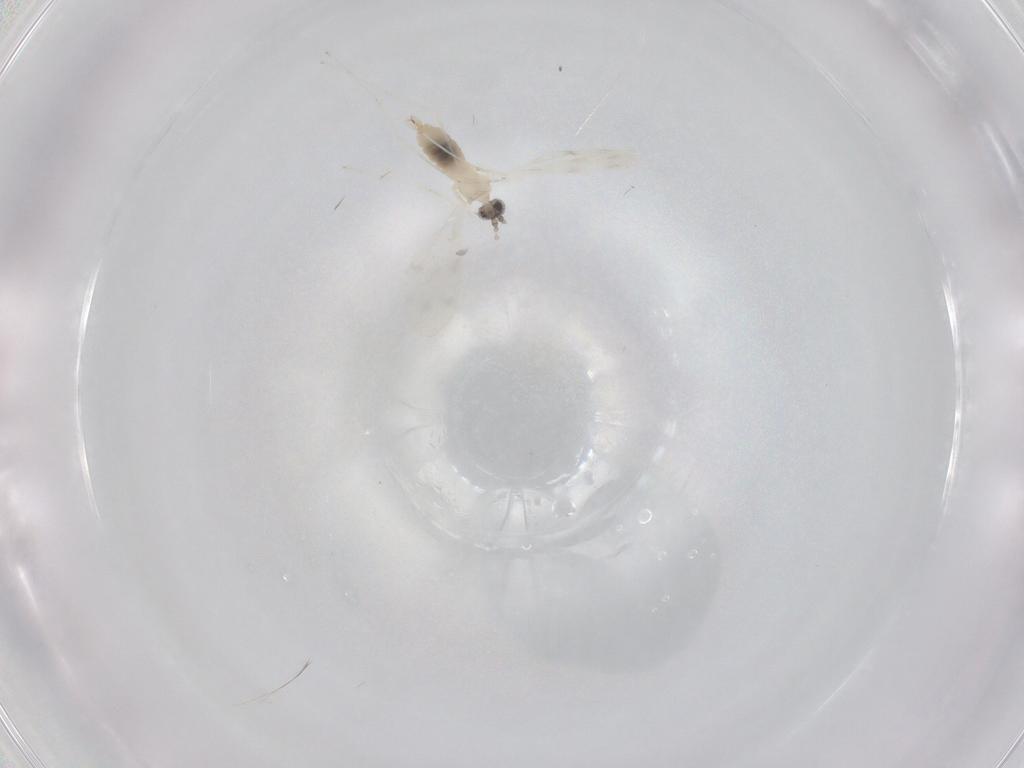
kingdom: Animalia
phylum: Arthropoda
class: Insecta
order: Diptera
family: Cecidomyiidae
